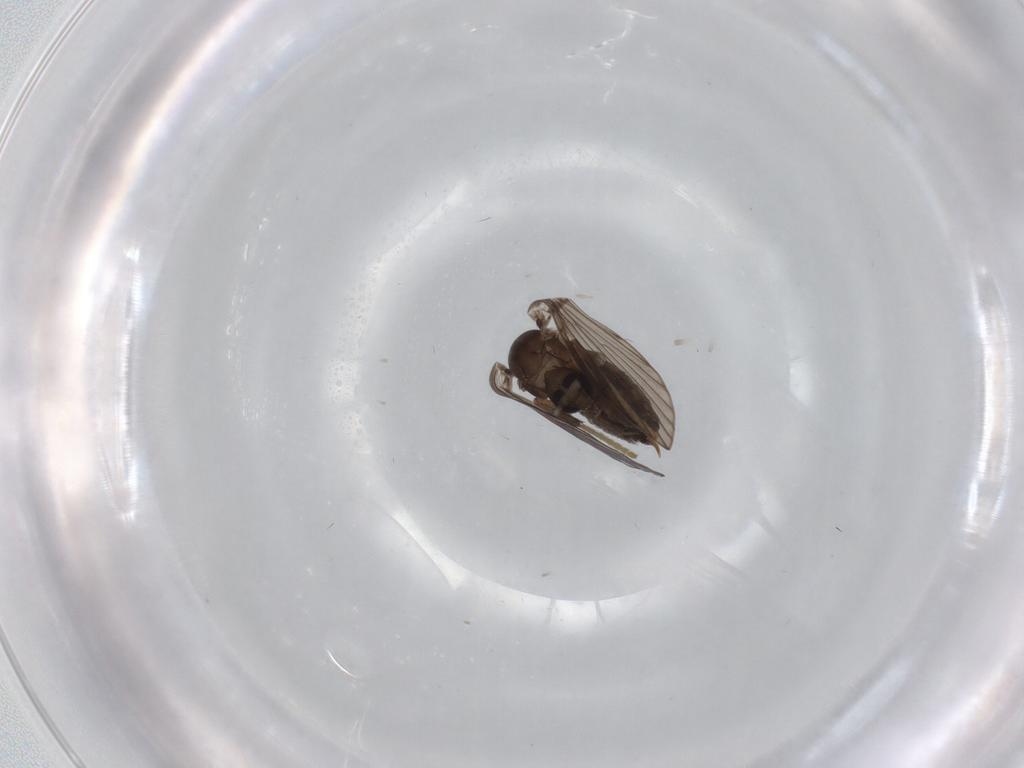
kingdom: Animalia
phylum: Arthropoda
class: Insecta
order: Diptera
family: Psychodidae
